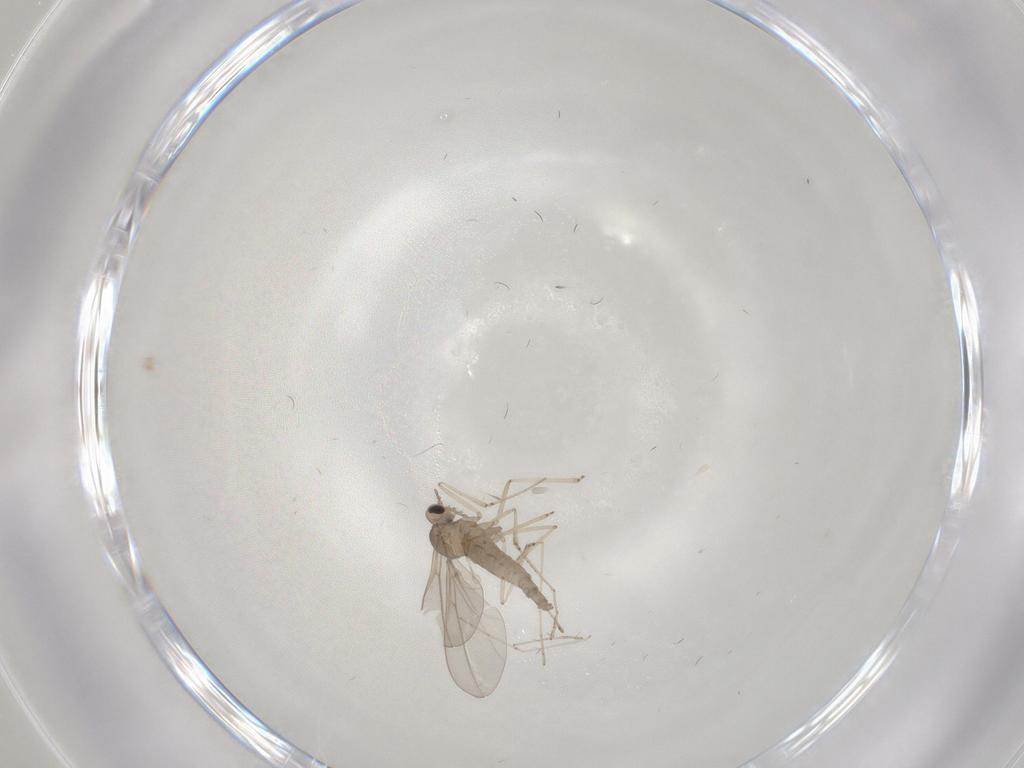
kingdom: Animalia
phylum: Arthropoda
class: Insecta
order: Diptera
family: Cecidomyiidae
